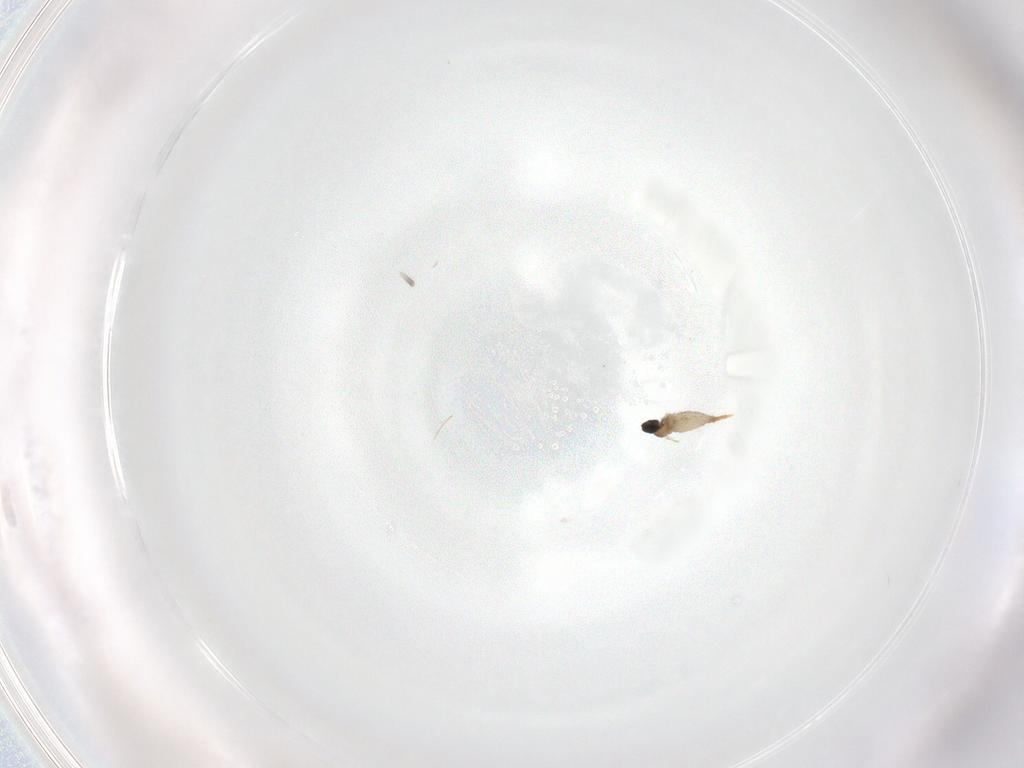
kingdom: Animalia
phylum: Arthropoda
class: Insecta
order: Diptera
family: Cecidomyiidae
